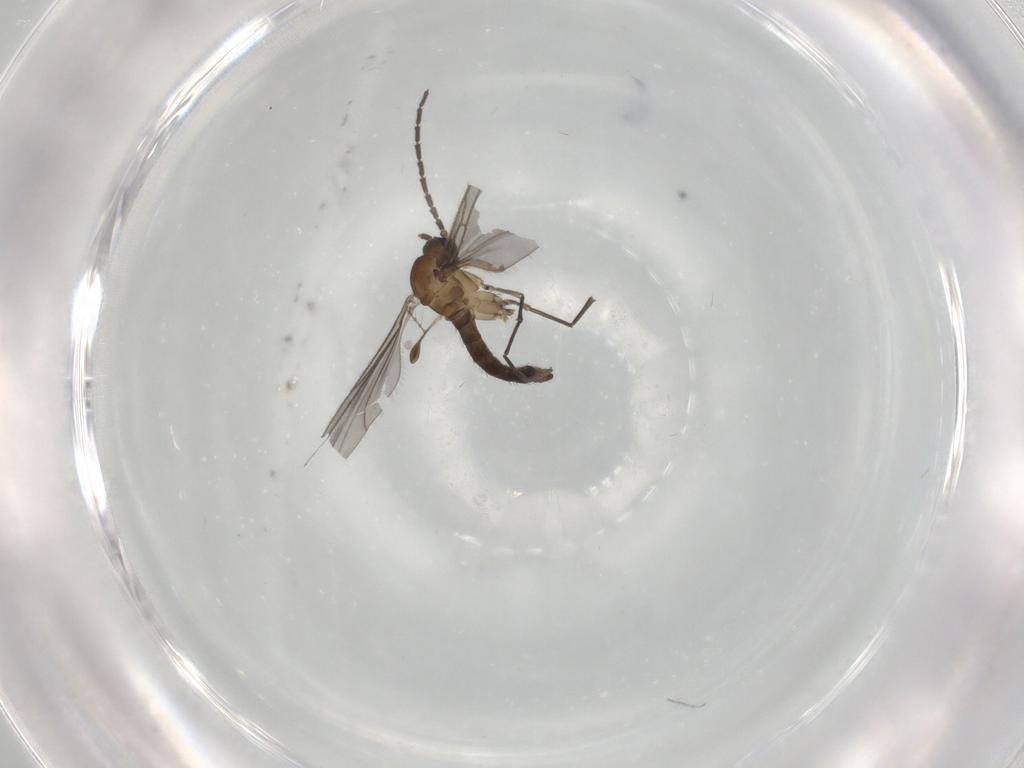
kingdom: Animalia
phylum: Arthropoda
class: Insecta
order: Diptera
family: Sciaridae
